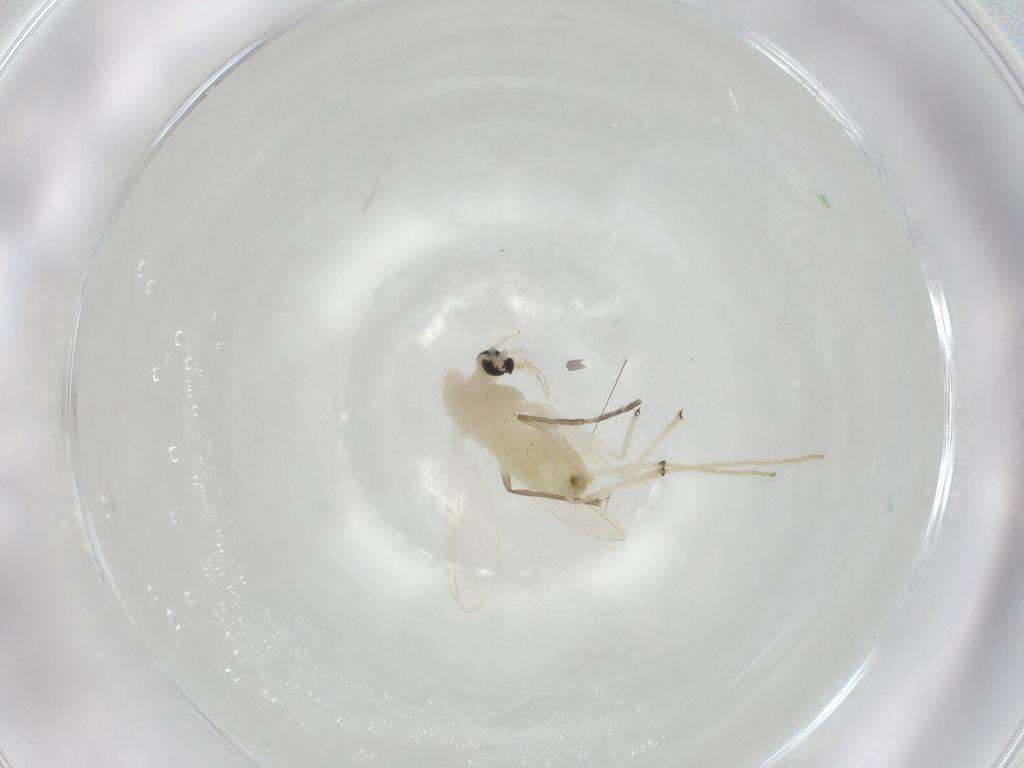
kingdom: Animalia
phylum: Arthropoda
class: Insecta
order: Diptera
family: Chironomidae
